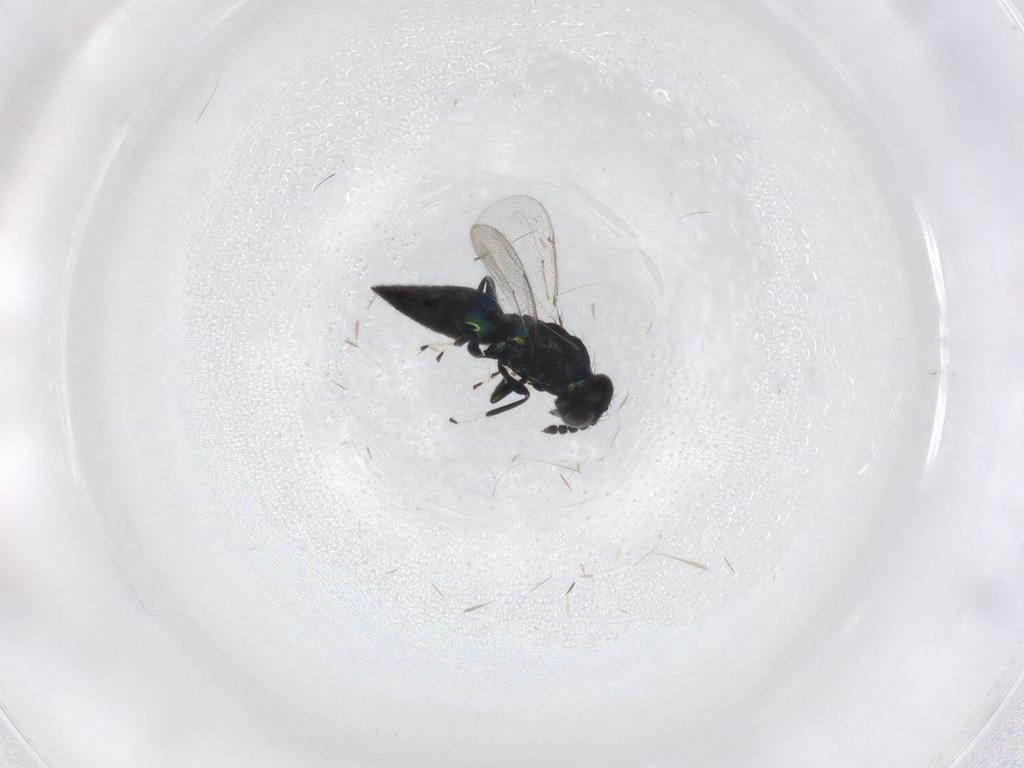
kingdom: Animalia
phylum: Arthropoda
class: Insecta
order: Hymenoptera
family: Eulophidae
